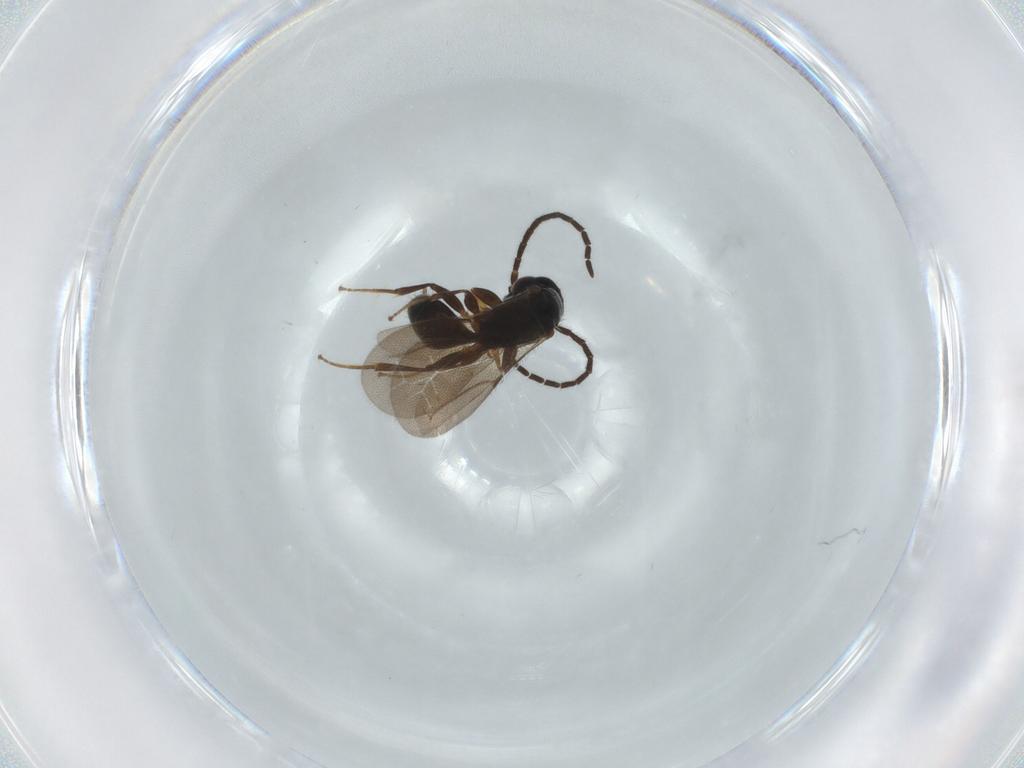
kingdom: Animalia
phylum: Arthropoda
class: Insecta
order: Hymenoptera
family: Bethylidae
